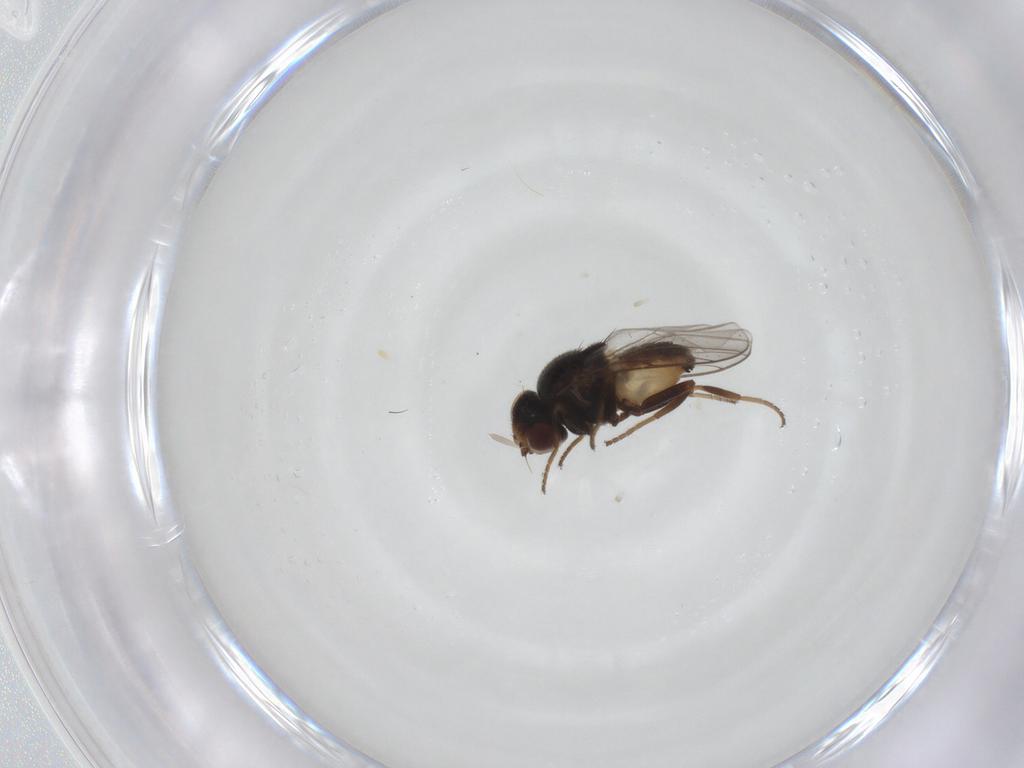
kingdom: Animalia
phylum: Arthropoda
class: Insecta
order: Diptera
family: Chloropidae
